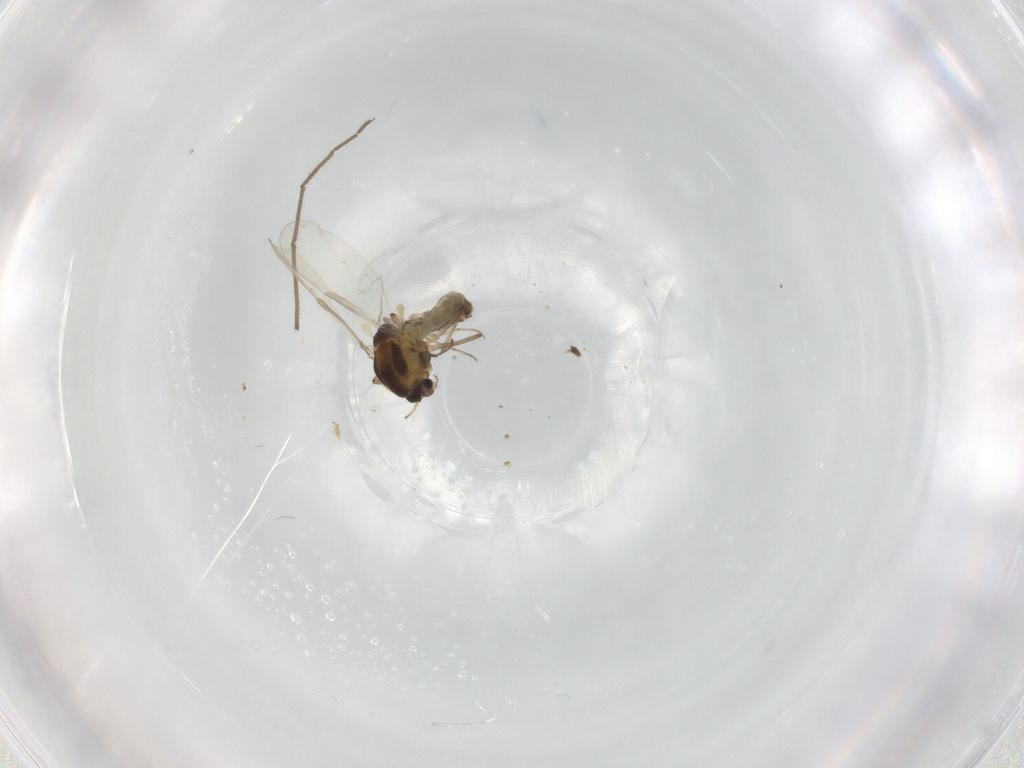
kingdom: Animalia
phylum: Arthropoda
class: Insecta
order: Diptera
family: Chironomidae
